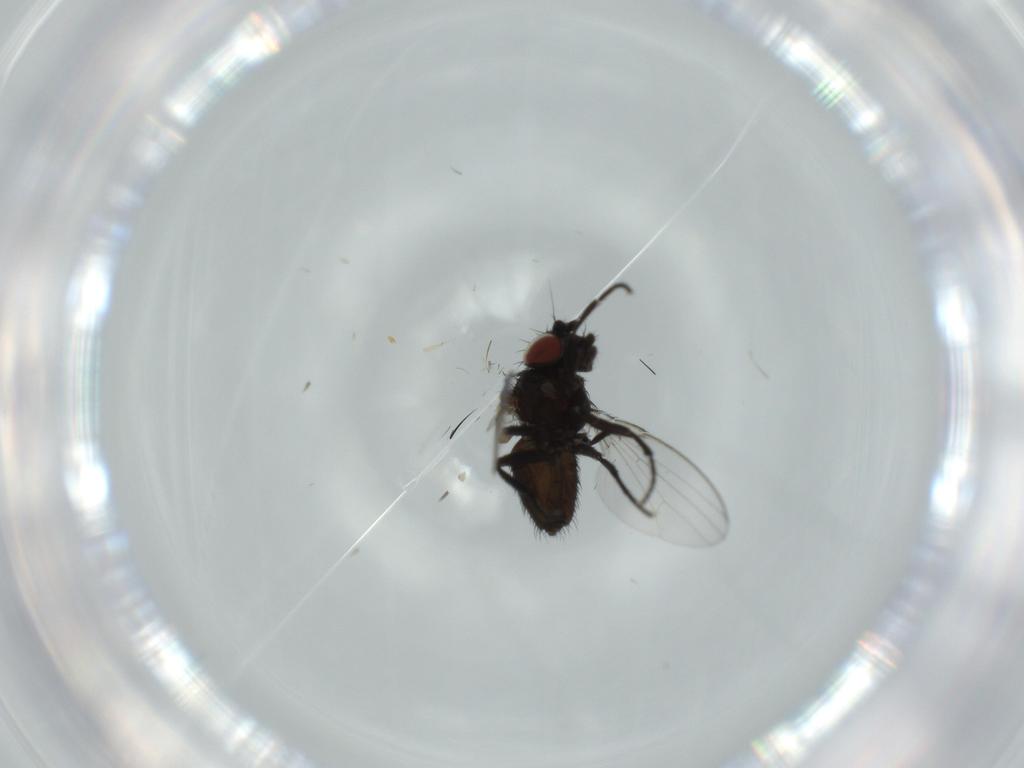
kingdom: Animalia
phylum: Arthropoda
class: Insecta
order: Diptera
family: Milichiidae
